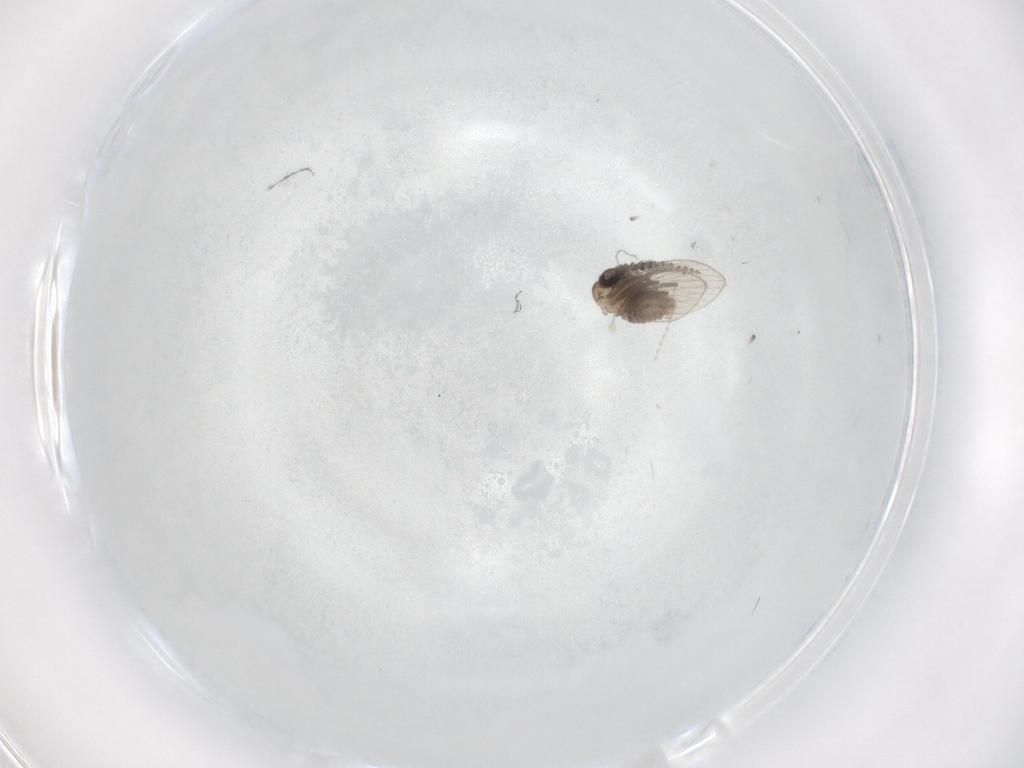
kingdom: Animalia
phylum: Arthropoda
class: Insecta
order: Diptera
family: Cecidomyiidae
